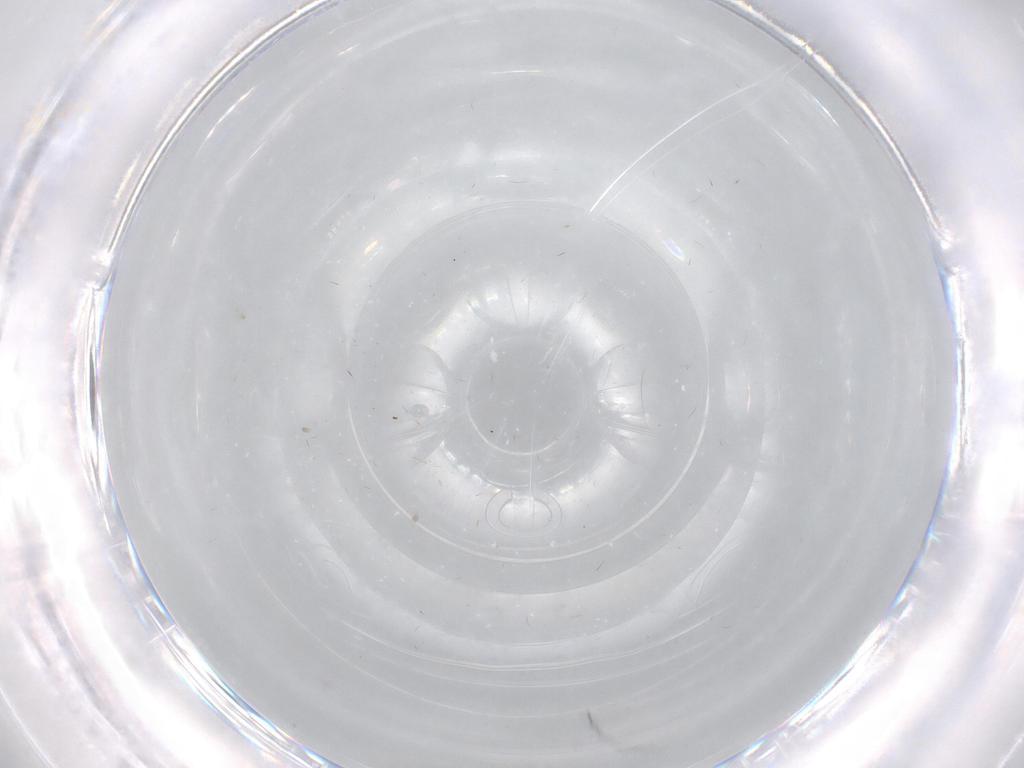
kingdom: Animalia
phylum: Arthropoda
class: Insecta
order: Diptera
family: Limoniidae
